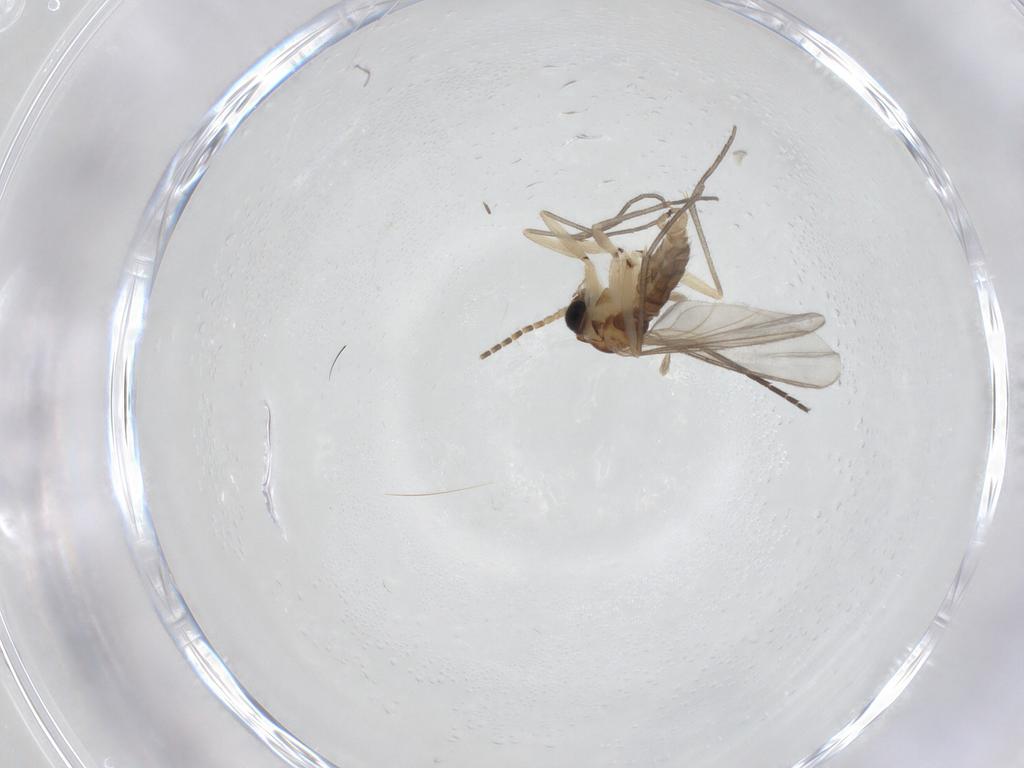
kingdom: Animalia
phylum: Arthropoda
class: Insecta
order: Diptera
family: Sciaridae
